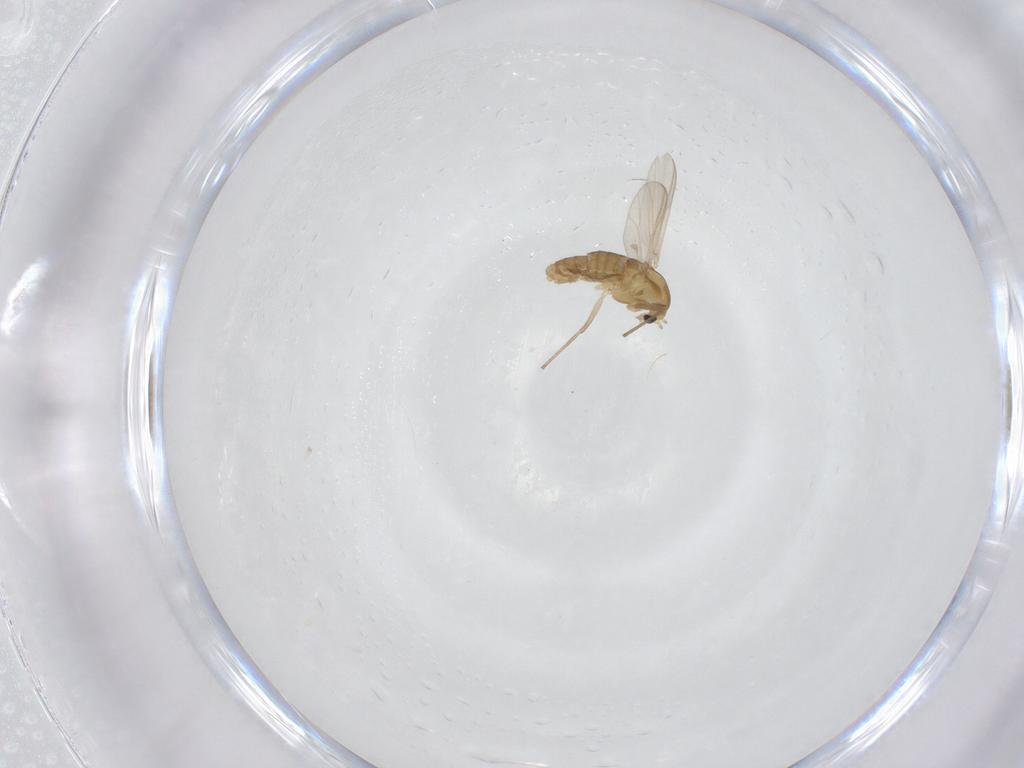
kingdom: Animalia
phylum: Arthropoda
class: Insecta
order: Diptera
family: Chironomidae
